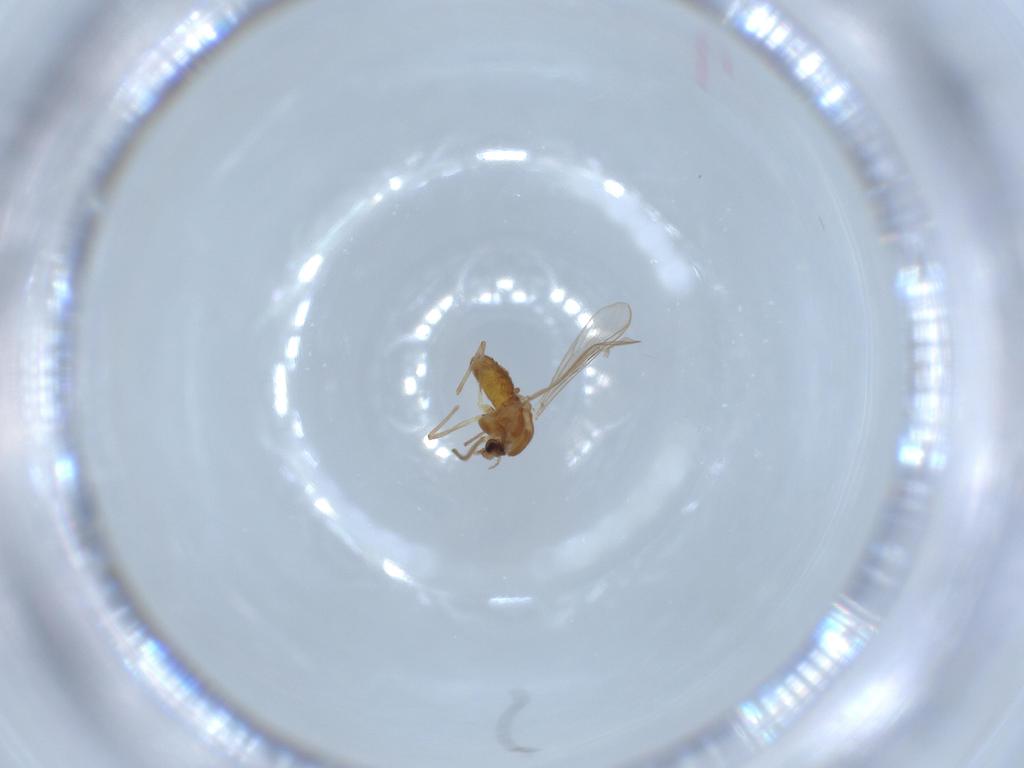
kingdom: Animalia
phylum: Arthropoda
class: Insecta
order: Diptera
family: Chironomidae
